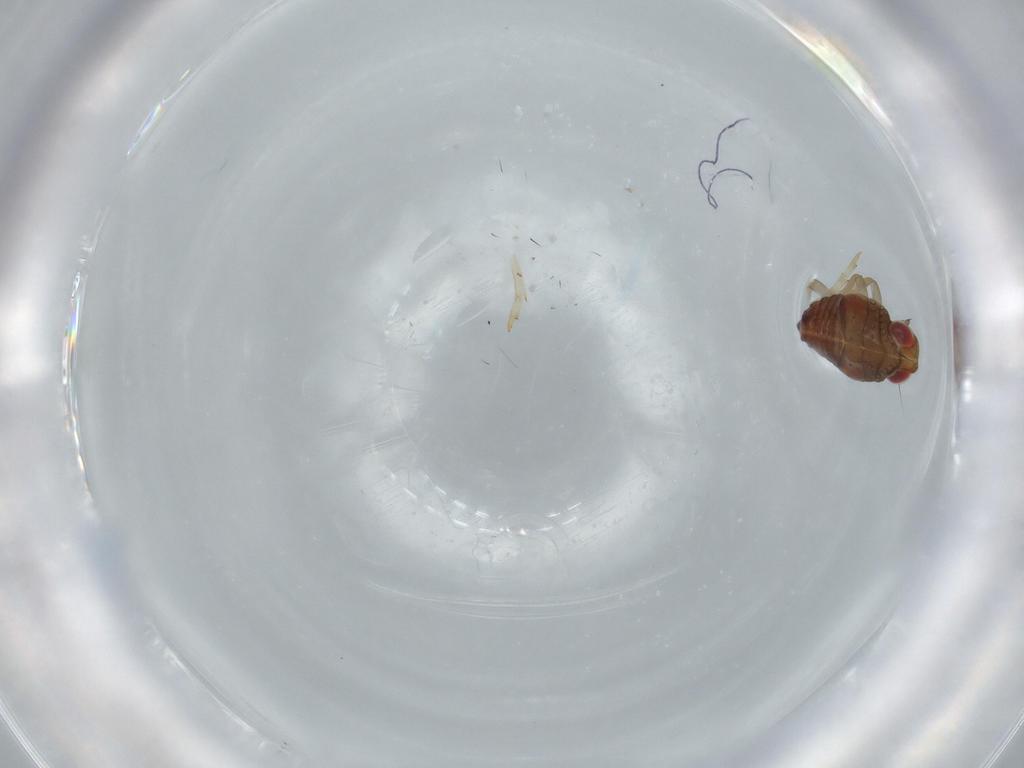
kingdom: Animalia
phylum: Arthropoda
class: Insecta
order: Hemiptera
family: Issidae
